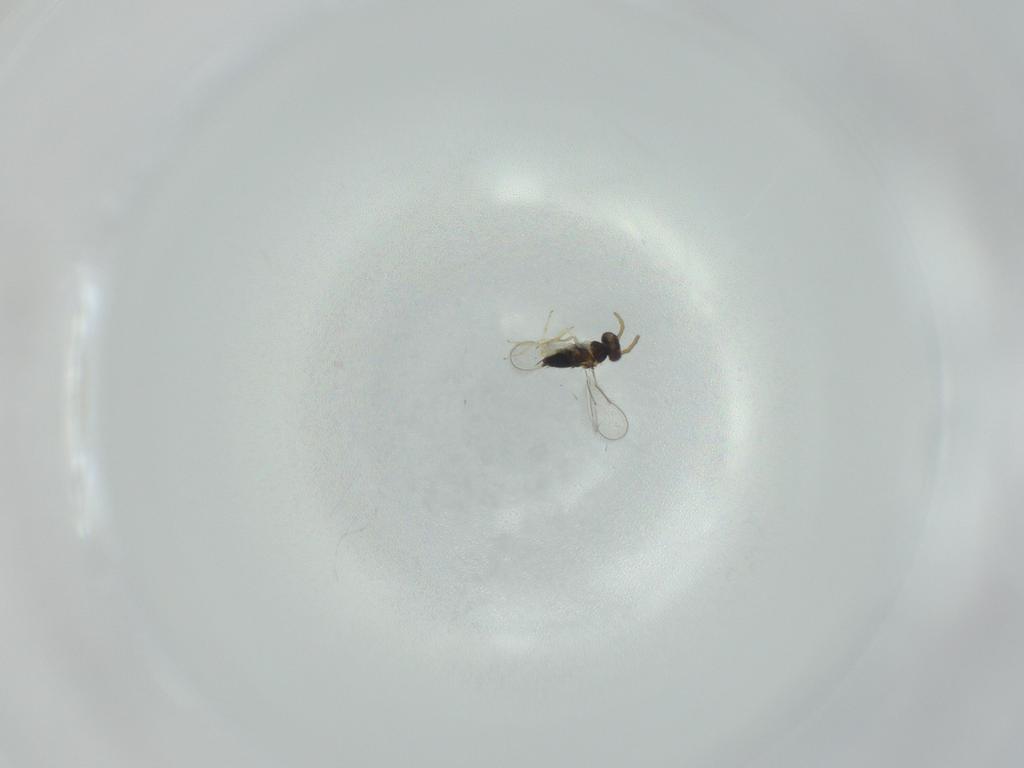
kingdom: Animalia
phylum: Arthropoda
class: Insecta
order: Hymenoptera
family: Aphelinidae
